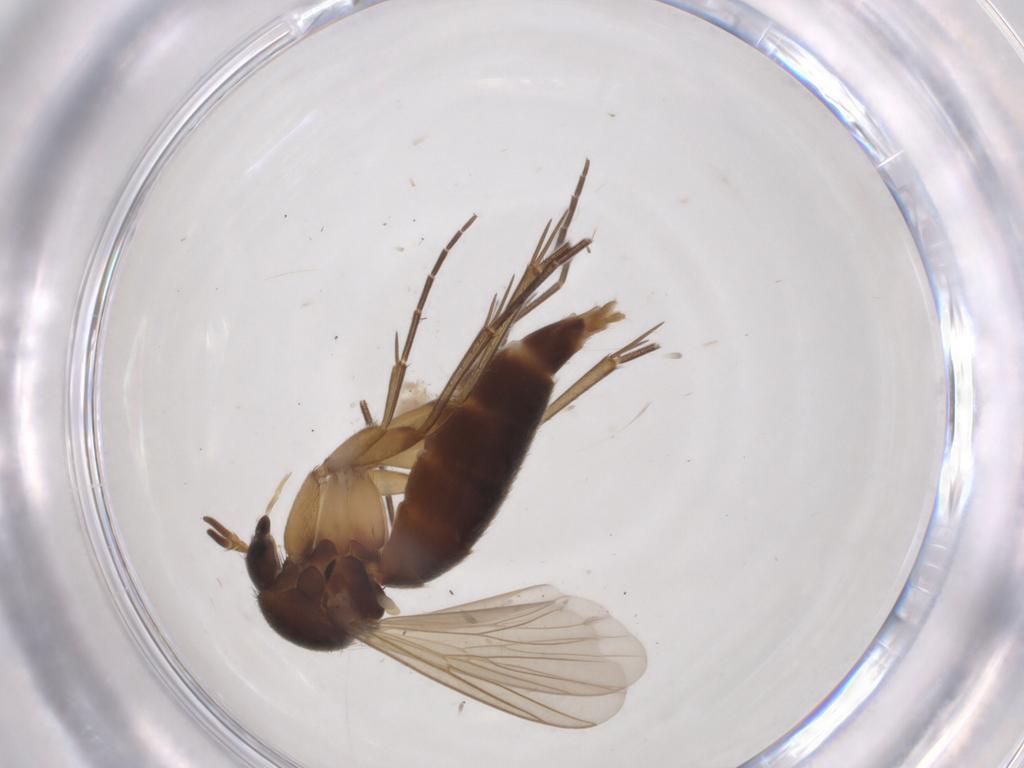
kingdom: Animalia
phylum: Arthropoda
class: Insecta
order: Diptera
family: Mycetophilidae
